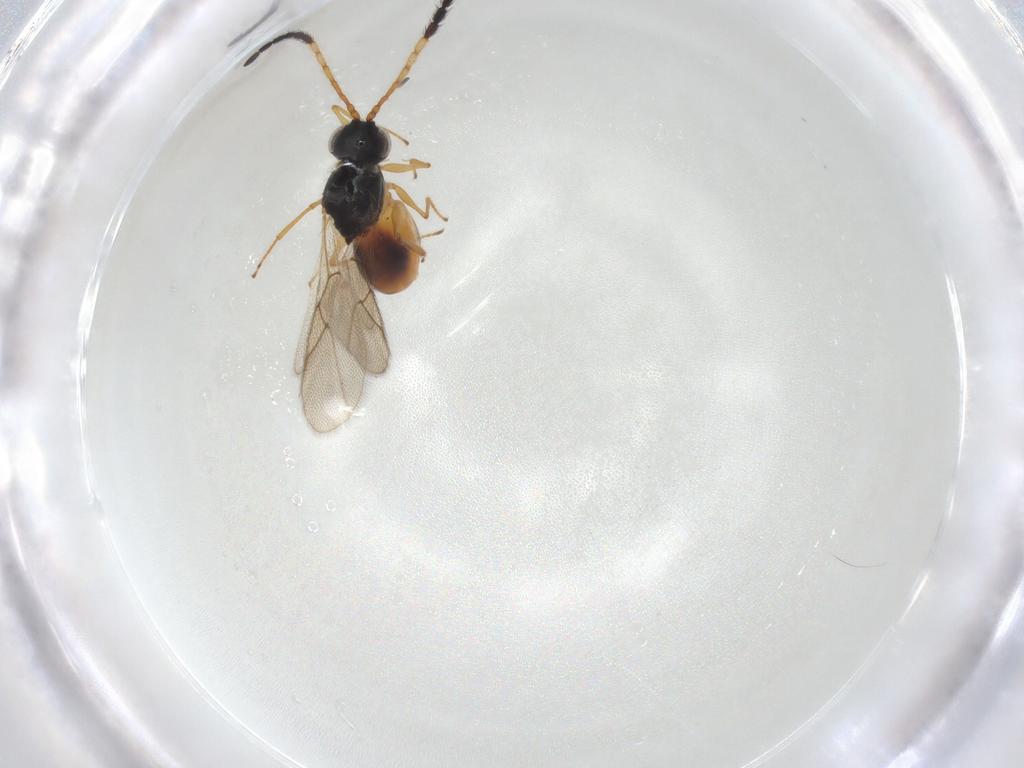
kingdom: Animalia
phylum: Arthropoda
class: Insecta
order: Hymenoptera
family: Figitidae
